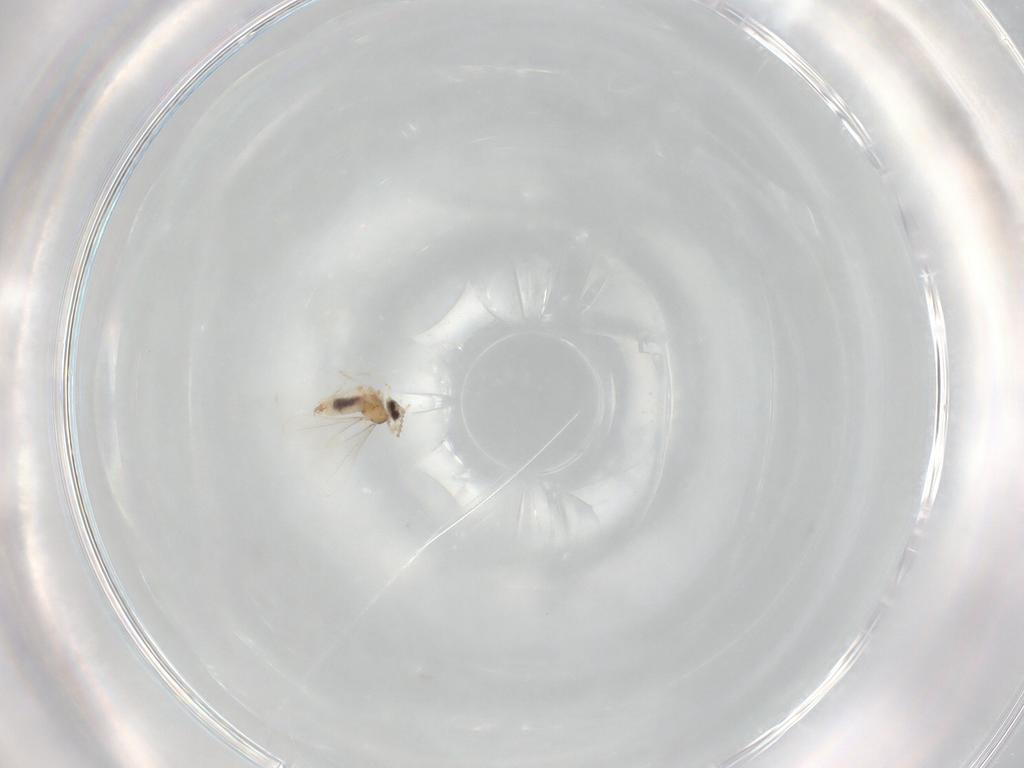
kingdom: Animalia
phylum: Arthropoda
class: Insecta
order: Diptera
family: Cecidomyiidae
